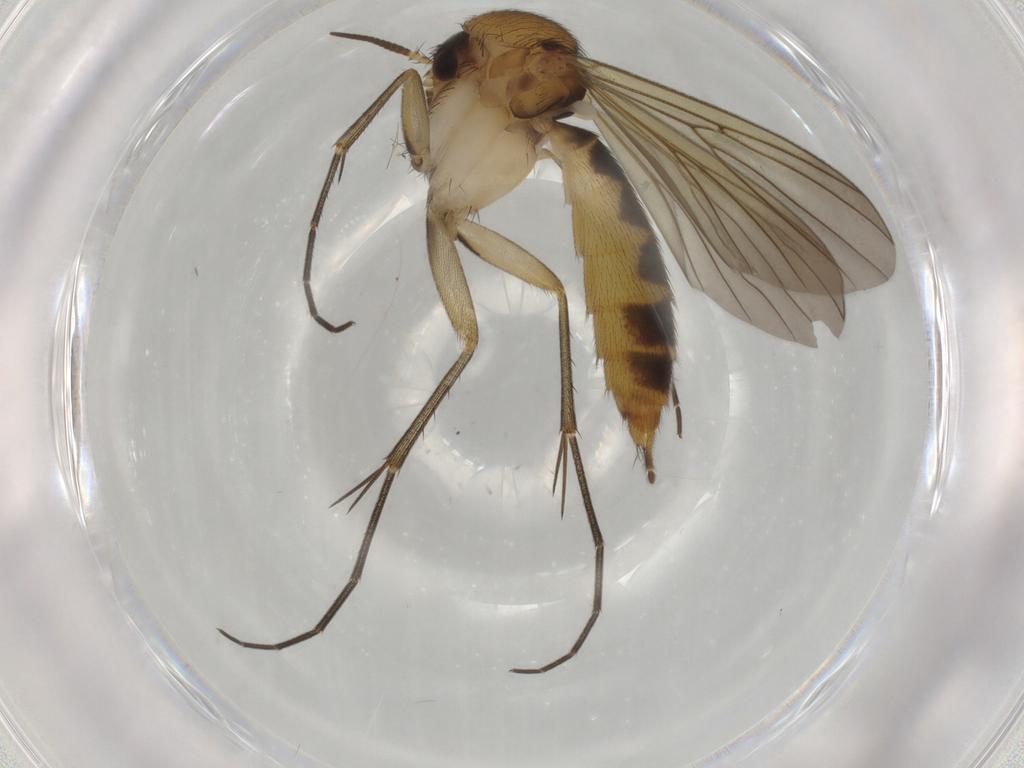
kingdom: Animalia
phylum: Arthropoda
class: Insecta
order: Diptera
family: Mycetophilidae
